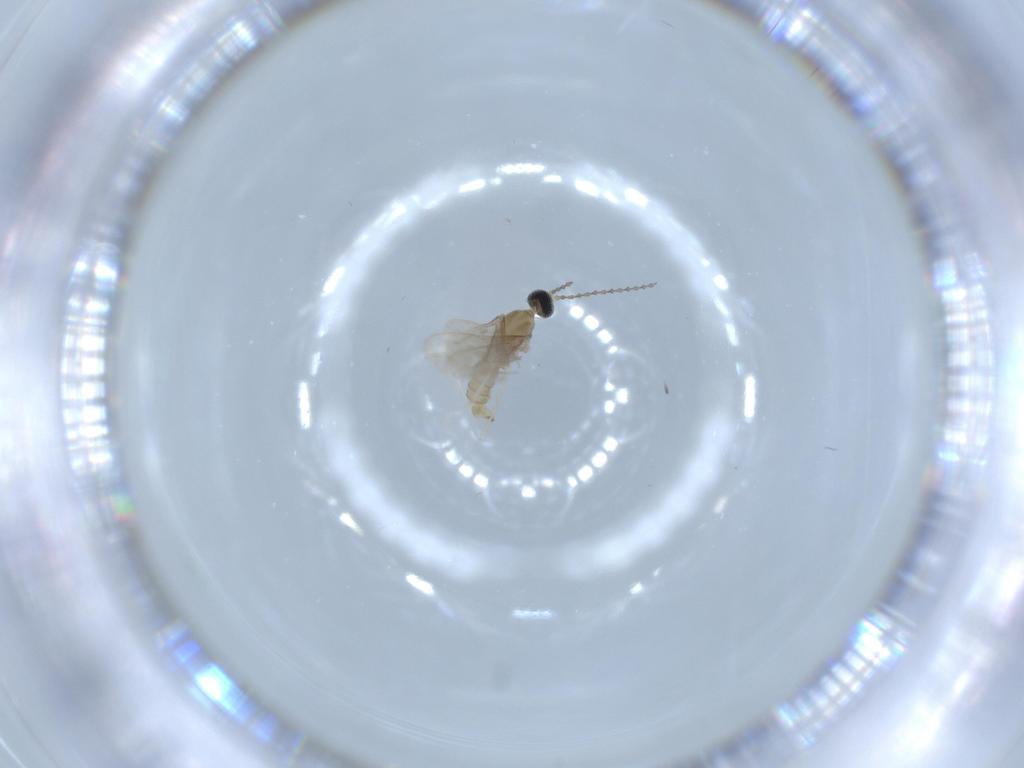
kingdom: Animalia
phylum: Arthropoda
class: Insecta
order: Diptera
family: Cecidomyiidae
